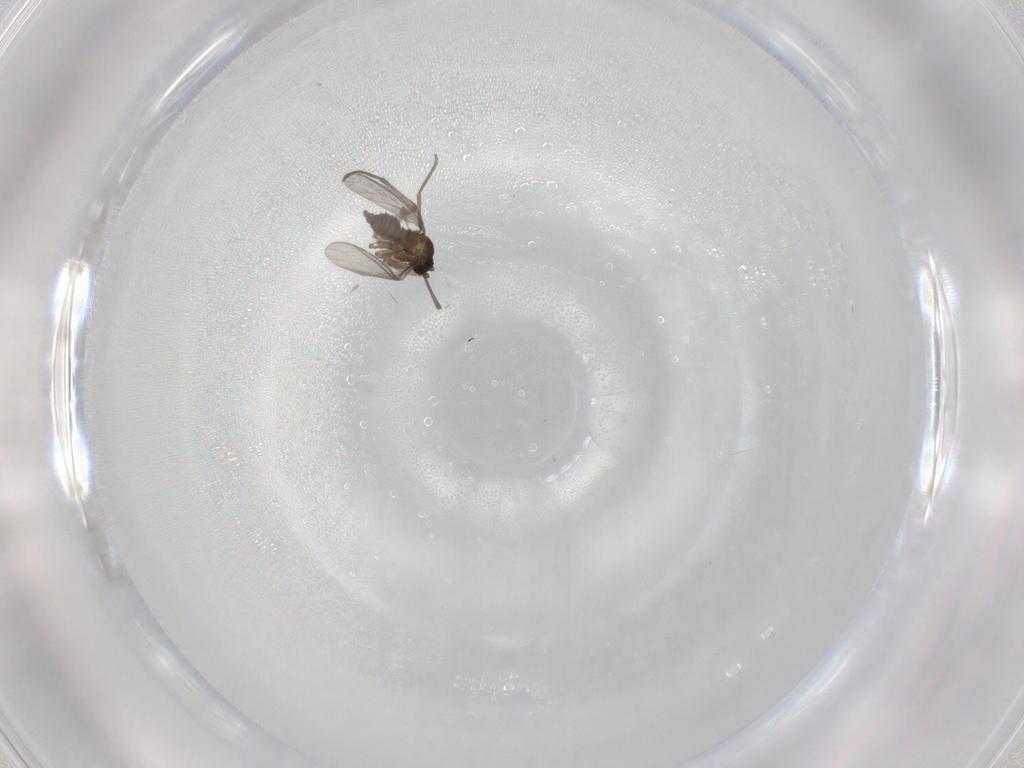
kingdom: Animalia
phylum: Arthropoda
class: Insecta
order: Diptera
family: Sciaridae
